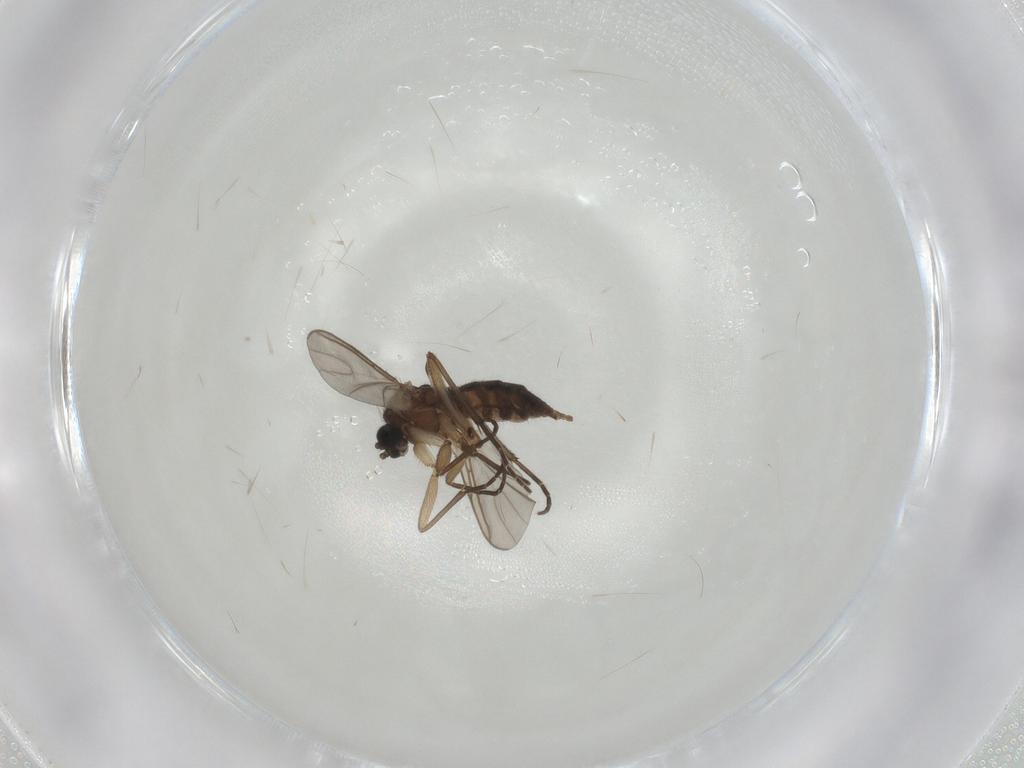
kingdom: Animalia
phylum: Arthropoda
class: Insecta
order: Hymenoptera
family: Braconidae
